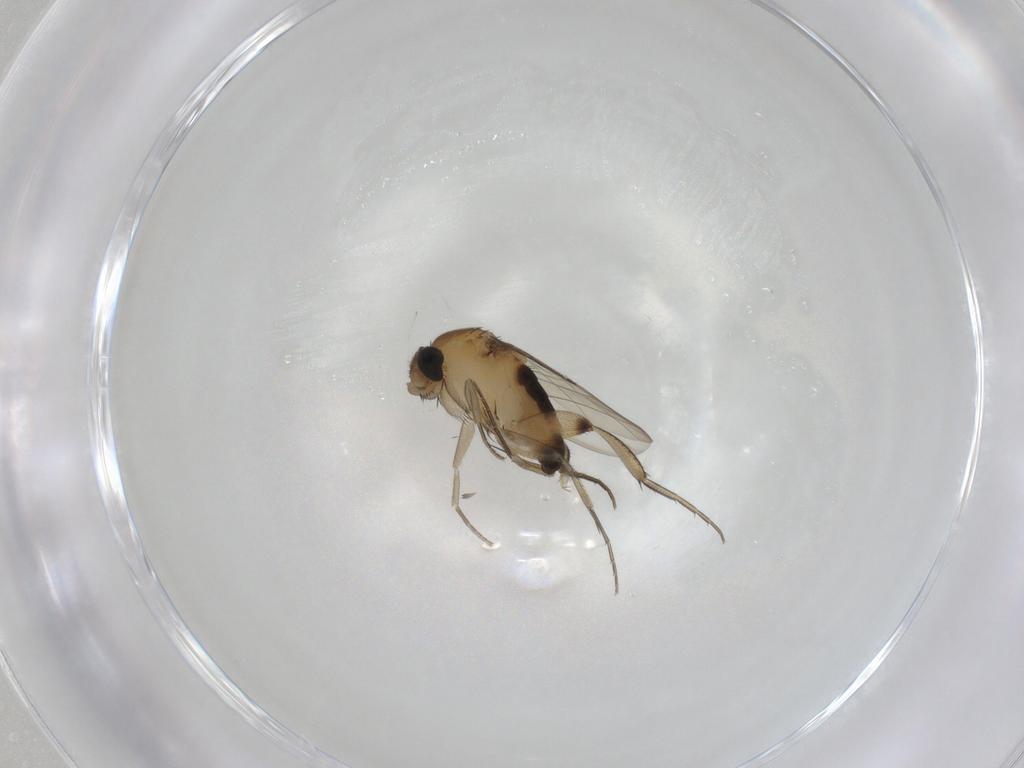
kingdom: Animalia
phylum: Arthropoda
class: Insecta
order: Diptera
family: Phoridae
